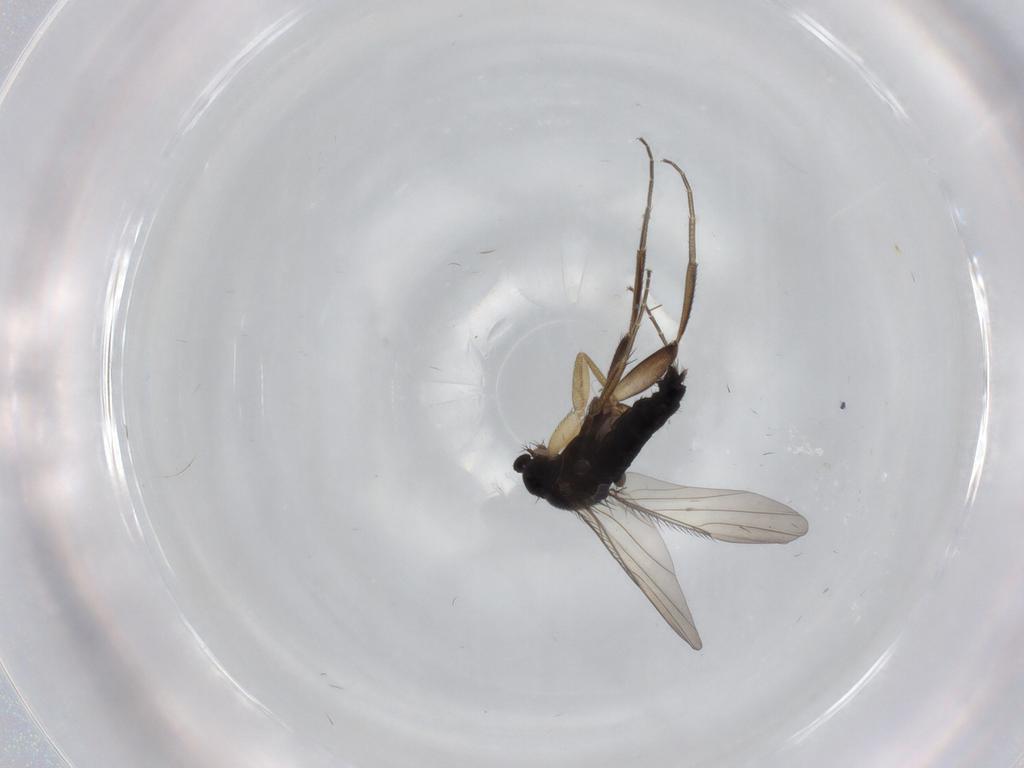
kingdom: Animalia
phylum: Arthropoda
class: Insecta
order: Diptera
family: Phoridae
